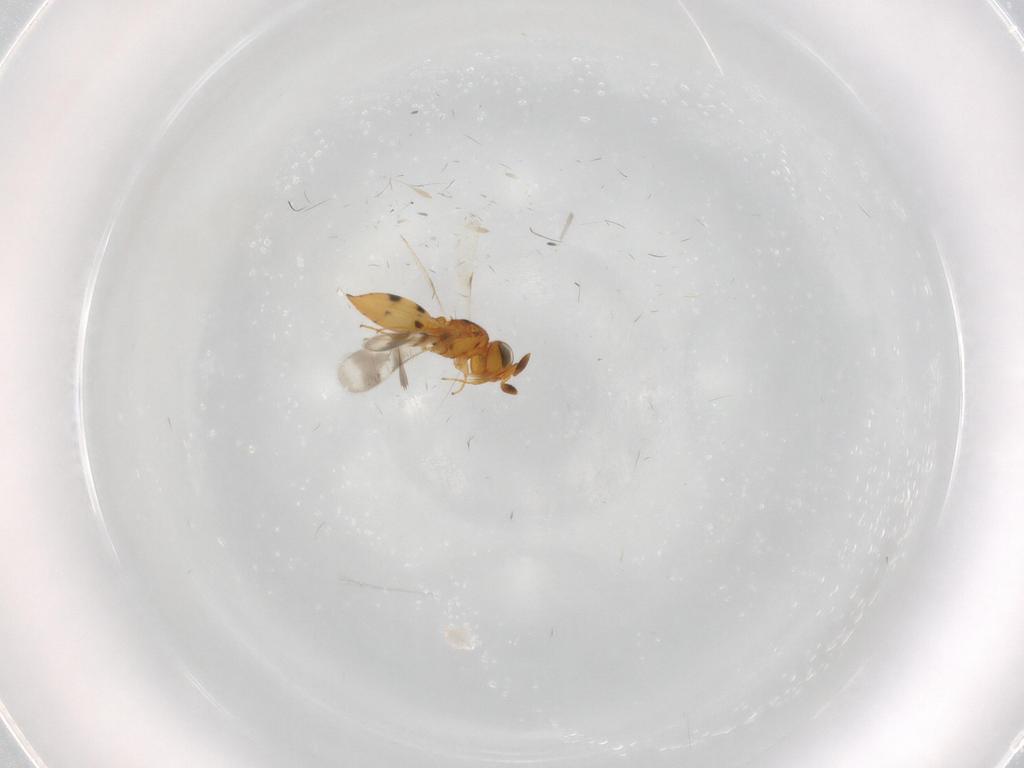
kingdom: Animalia
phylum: Arthropoda
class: Insecta
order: Hymenoptera
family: Scelionidae
